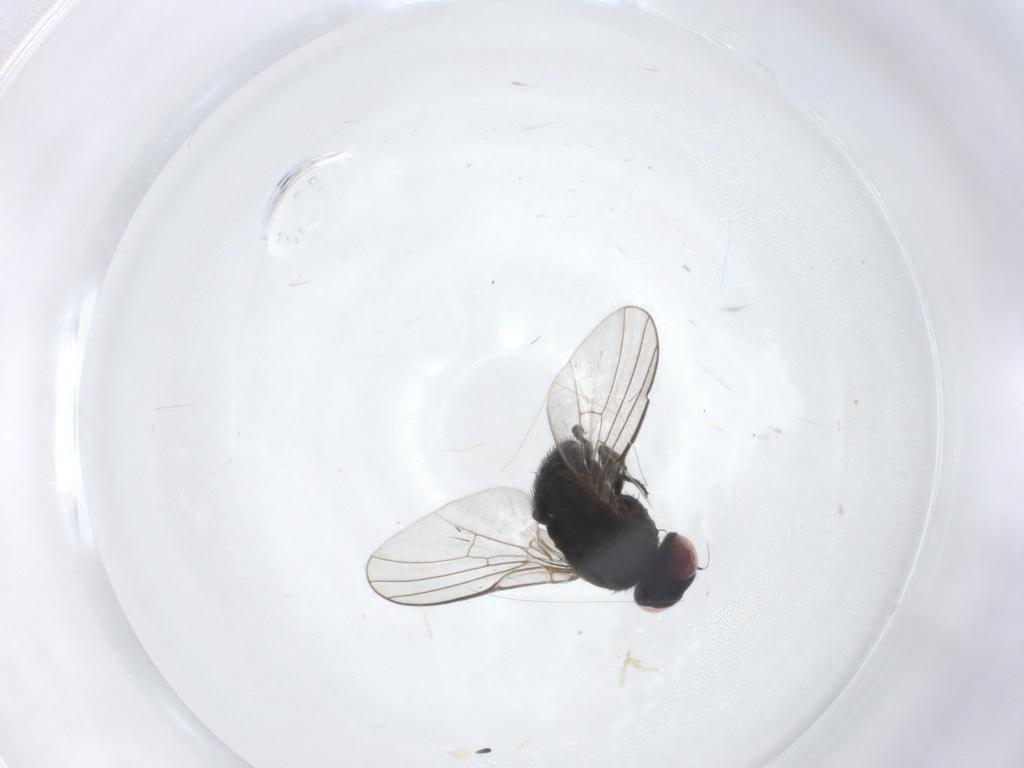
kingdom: Animalia
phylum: Arthropoda
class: Insecta
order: Diptera
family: Agromyzidae
